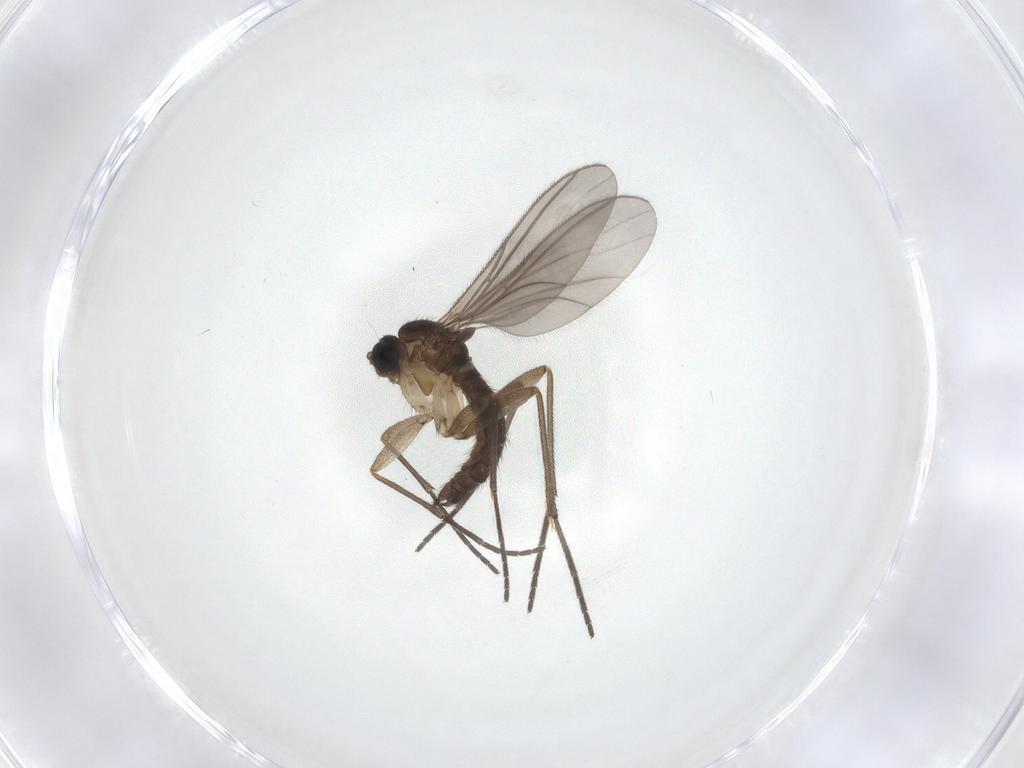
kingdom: Animalia
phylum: Arthropoda
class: Insecta
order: Diptera
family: Sciaridae
